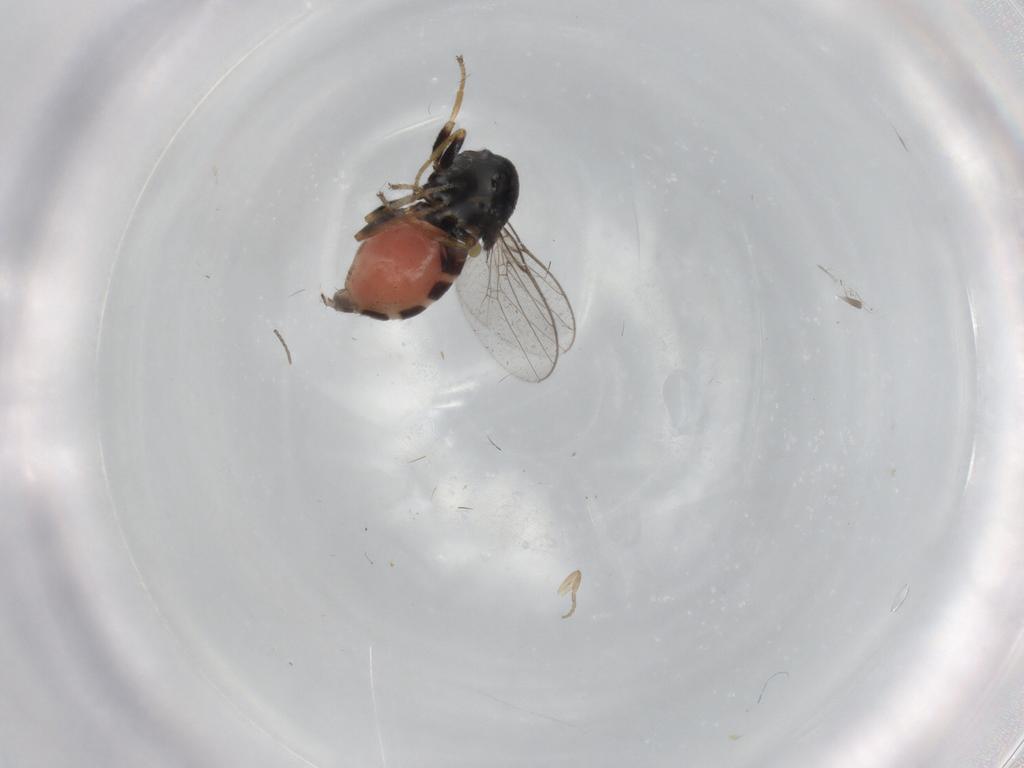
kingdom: Animalia
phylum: Arthropoda
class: Insecta
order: Diptera
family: Chloropidae
